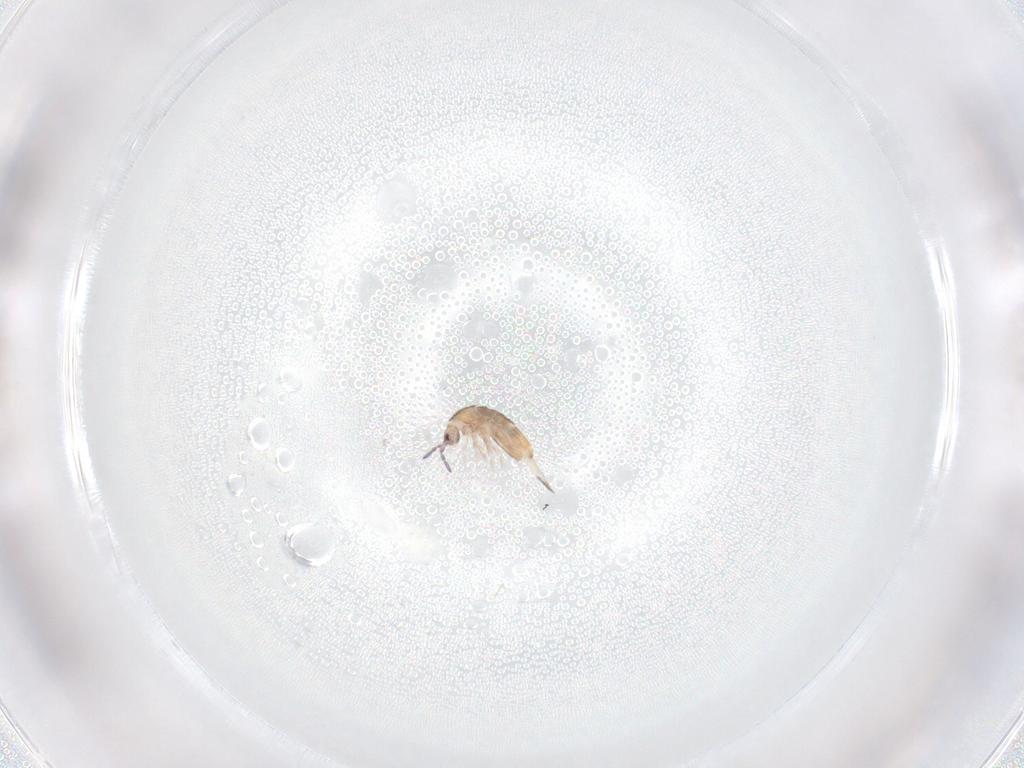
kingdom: Animalia
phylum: Arthropoda
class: Collembola
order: Entomobryomorpha
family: Entomobryidae
